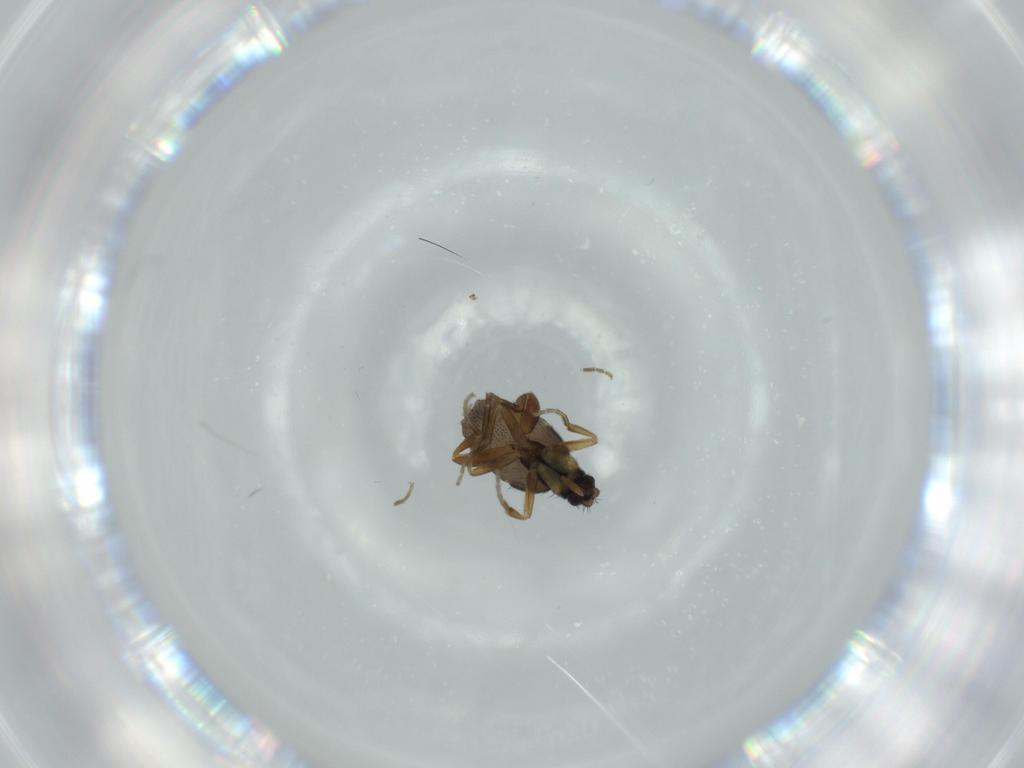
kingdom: Animalia
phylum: Arthropoda
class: Insecta
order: Diptera
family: Phoridae
